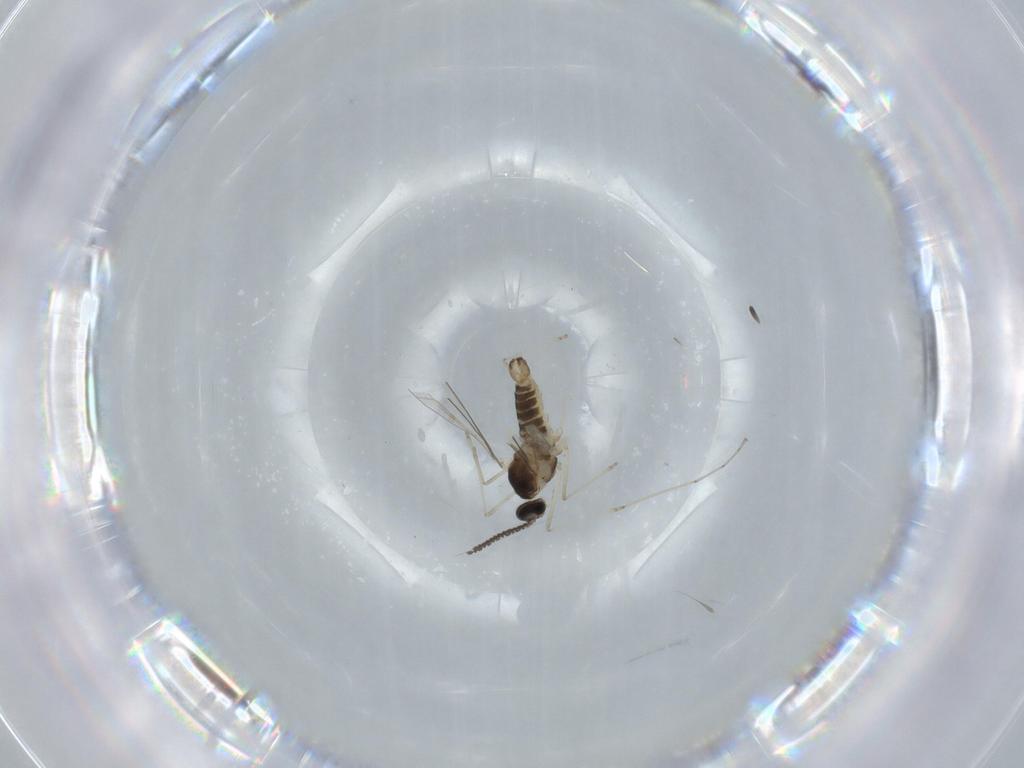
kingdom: Animalia
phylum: Arthropoda
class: Insecta
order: Diptera
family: Cecidomyiidae
